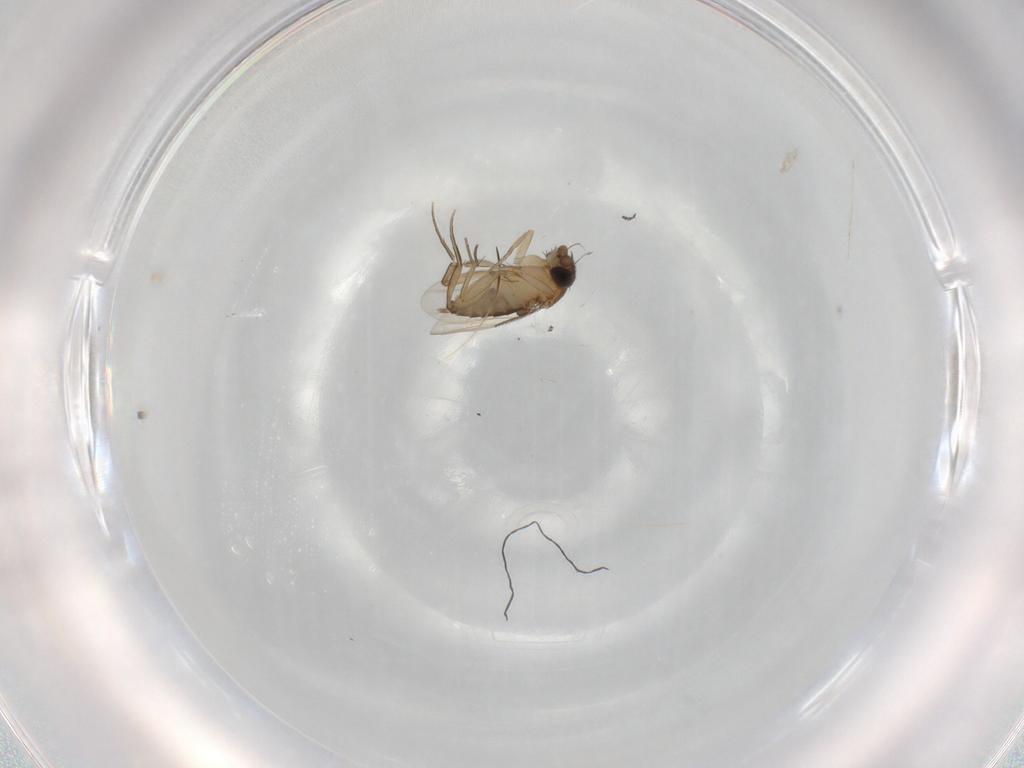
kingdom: Animalia
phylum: Arthropoda
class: Insecta
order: Diptera
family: Phoridae
